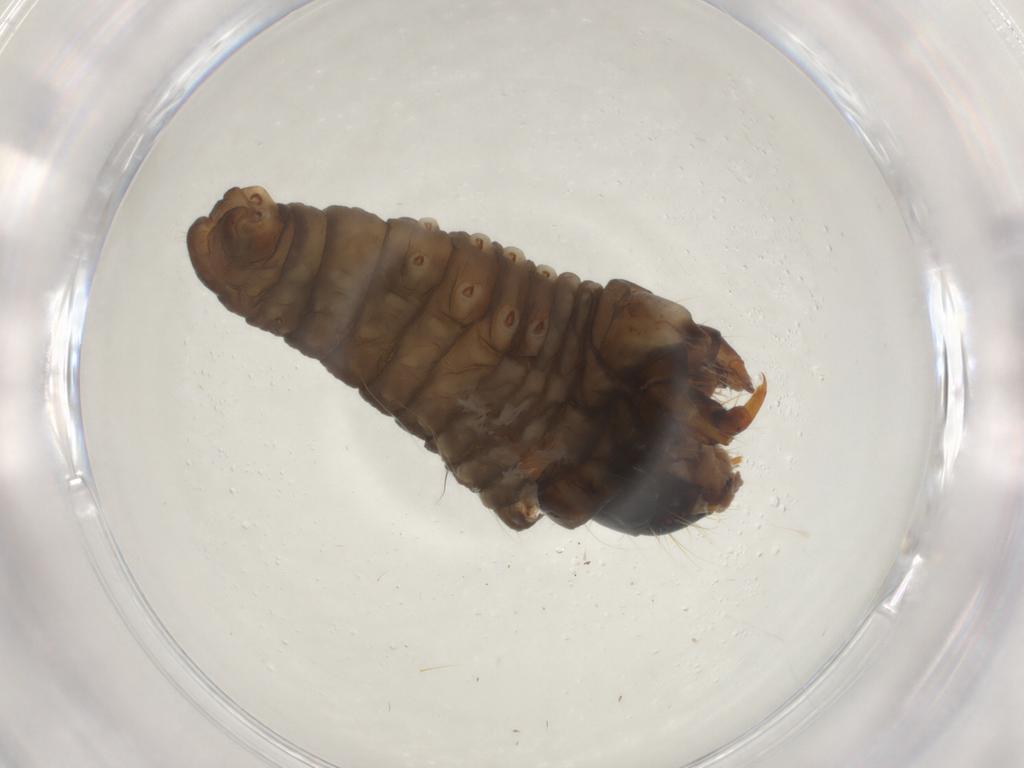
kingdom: Animalia
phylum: Arthropoda
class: Insecta
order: Lepidoptera
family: Psychidae
